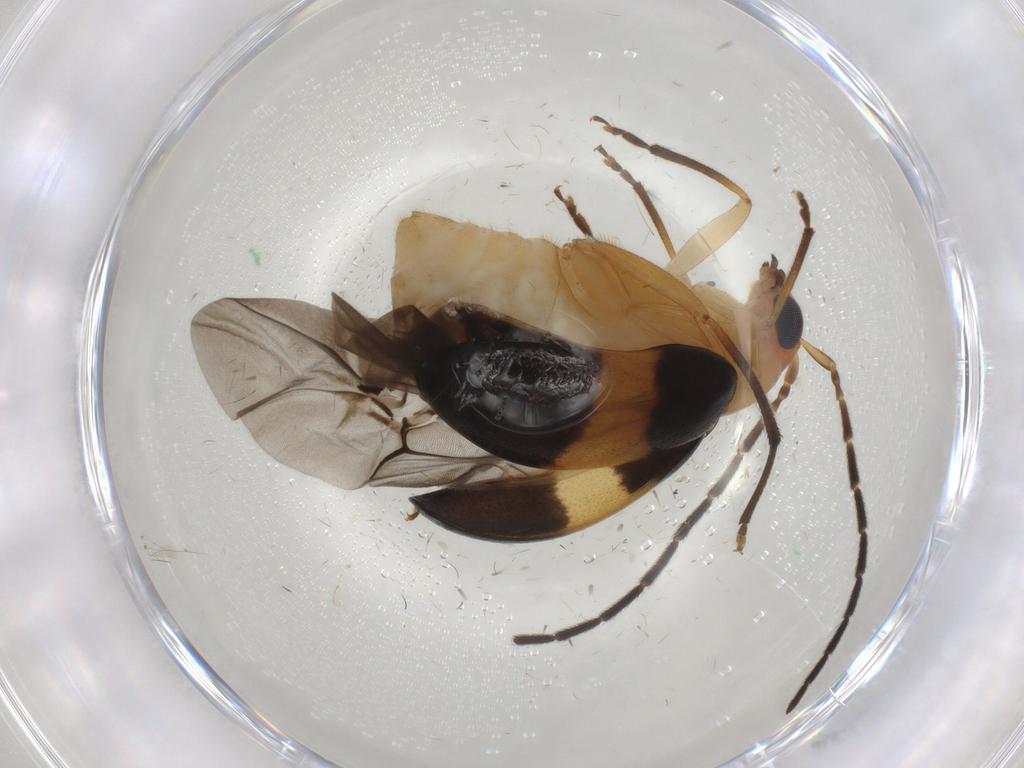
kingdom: Animalia
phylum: Arthropoda
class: Insecta
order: Coleoptera
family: Chrysomelidae
